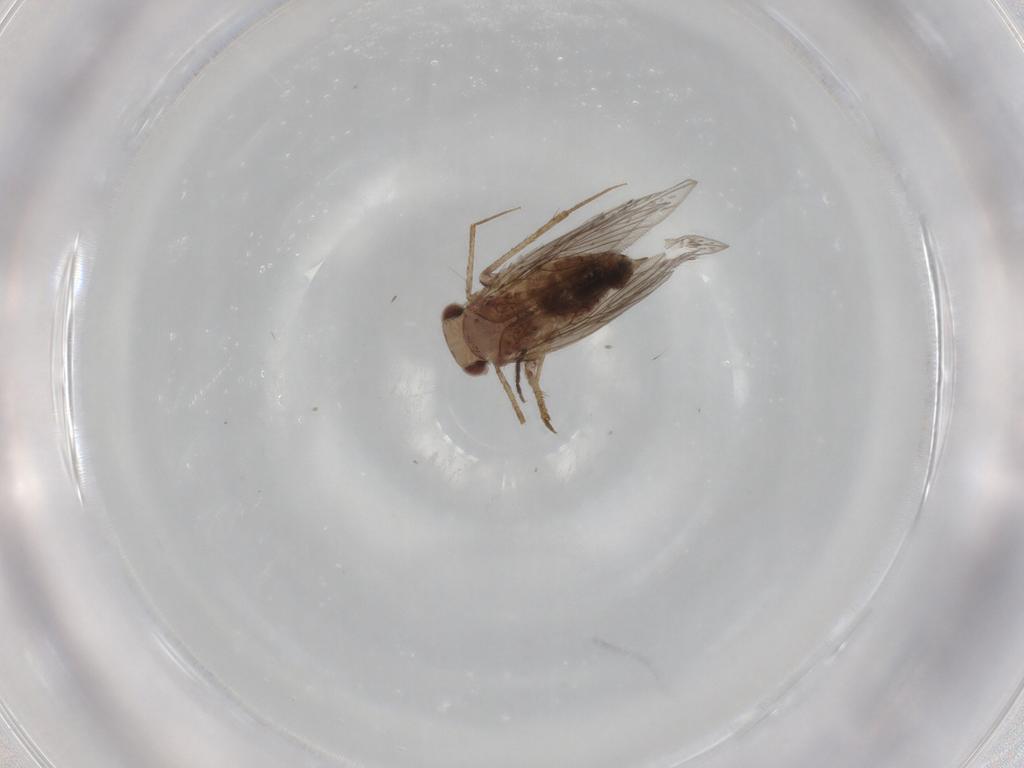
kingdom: Animalia
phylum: Arthropoda
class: Insecta
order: Psocodea
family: Lepidopsocidae
